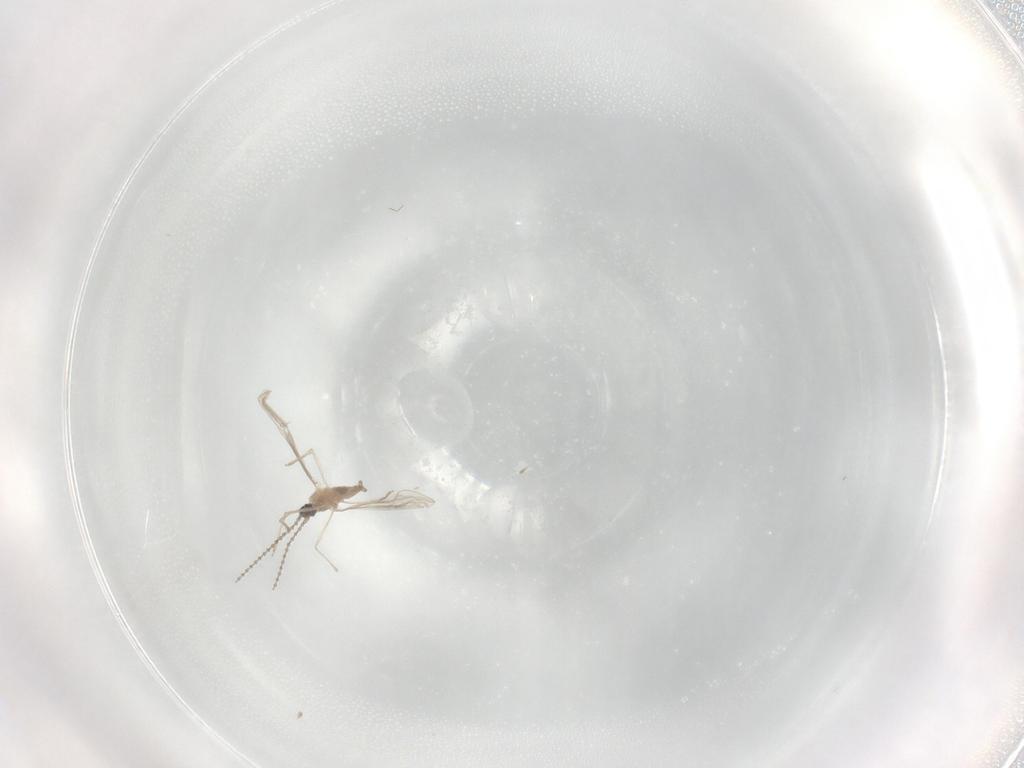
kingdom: Animalia
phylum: Arthropoda
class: Insecta
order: Diptera
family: Cecidomyiidae
